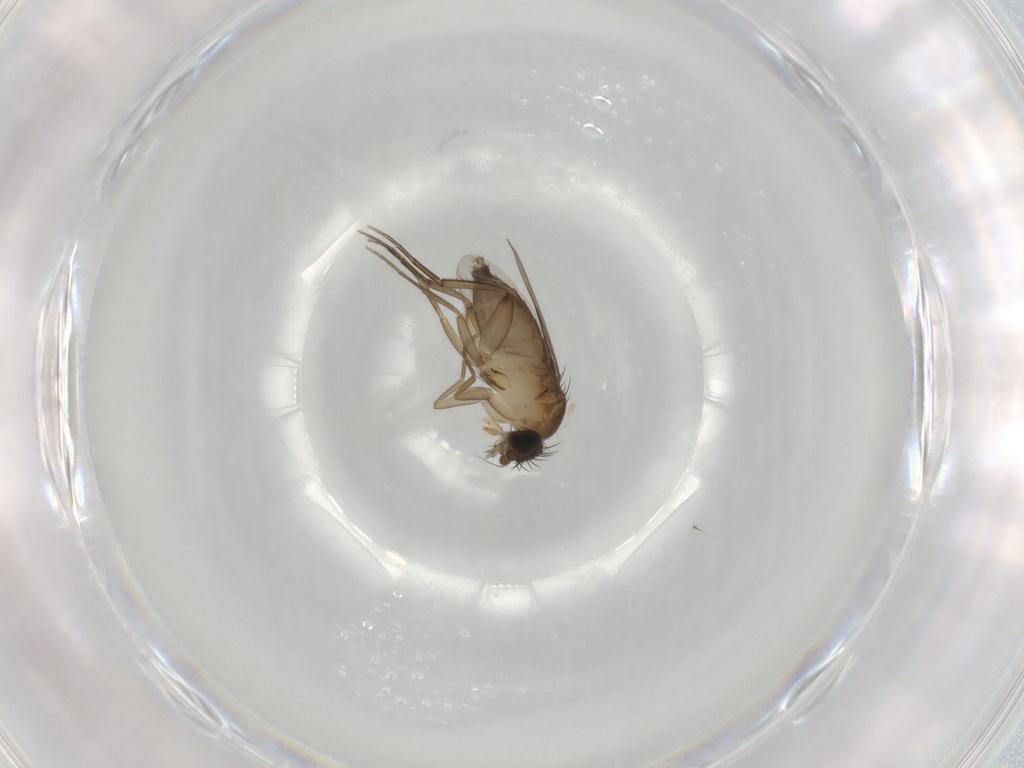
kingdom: Animalia
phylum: Arthropoda
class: Insecta
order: Diptera
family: Phoridae
